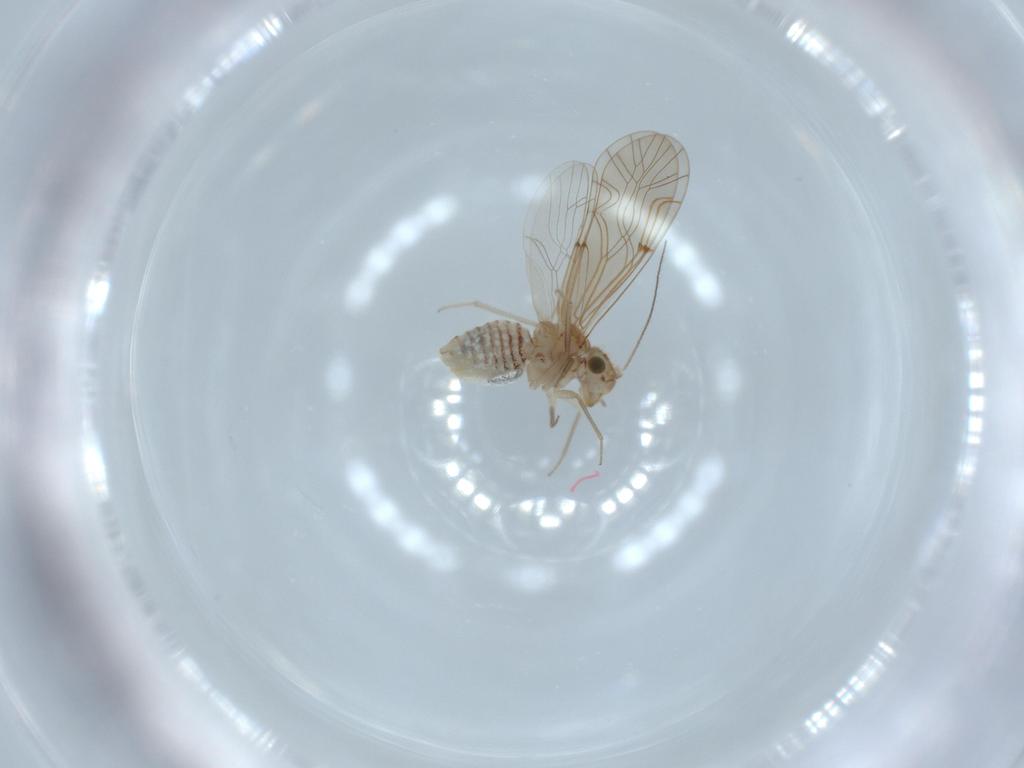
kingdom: Animalia
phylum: Arthropoda
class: Insecta
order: Psocodea
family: Lachesillidae
